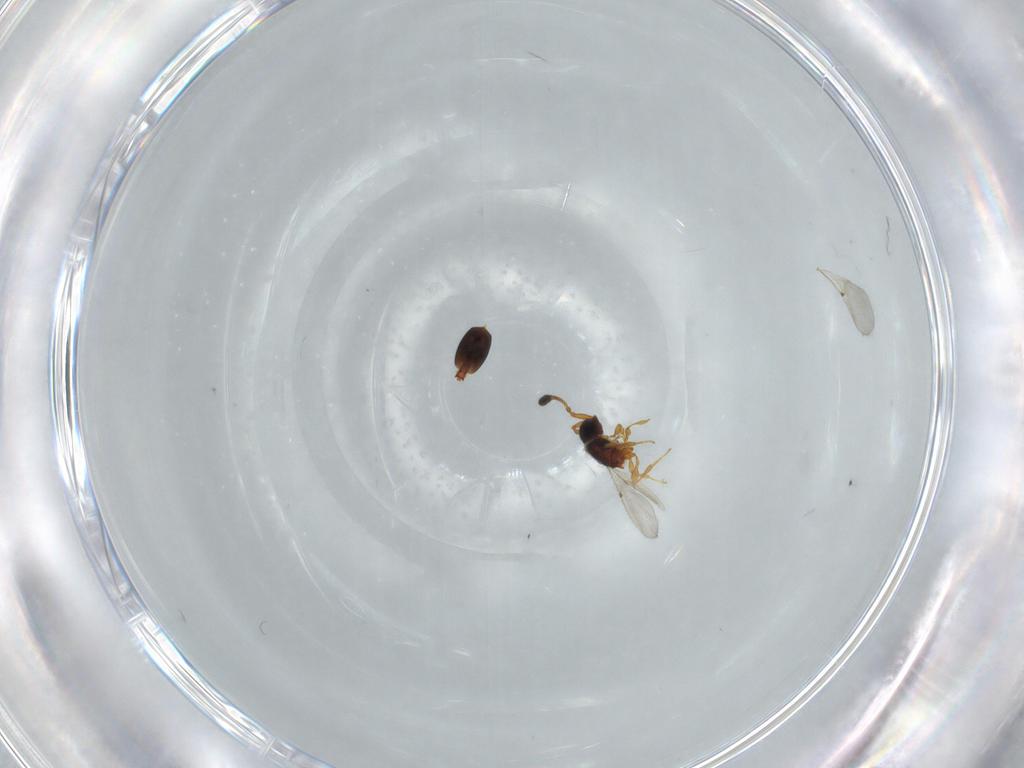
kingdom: Animalia
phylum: Arthropoda
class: Insecta
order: Hymenoptera
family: Diapriidae
